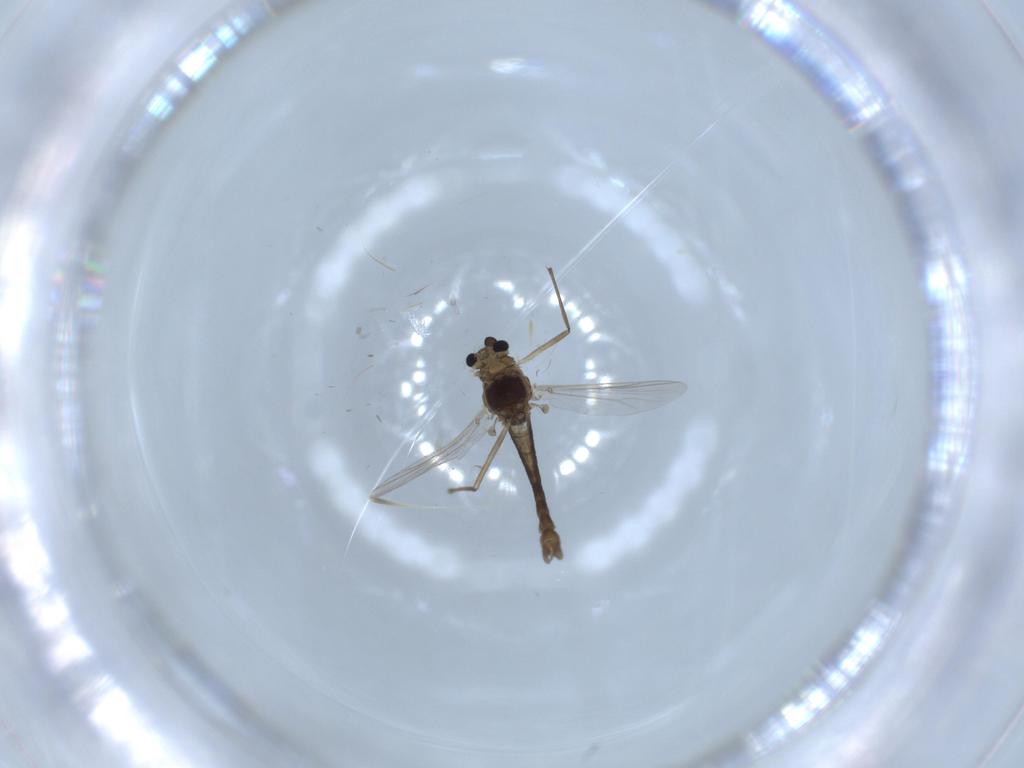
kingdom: Animalia
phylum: Arthropoda
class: Insecta
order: Diptera
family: Chironomidae
